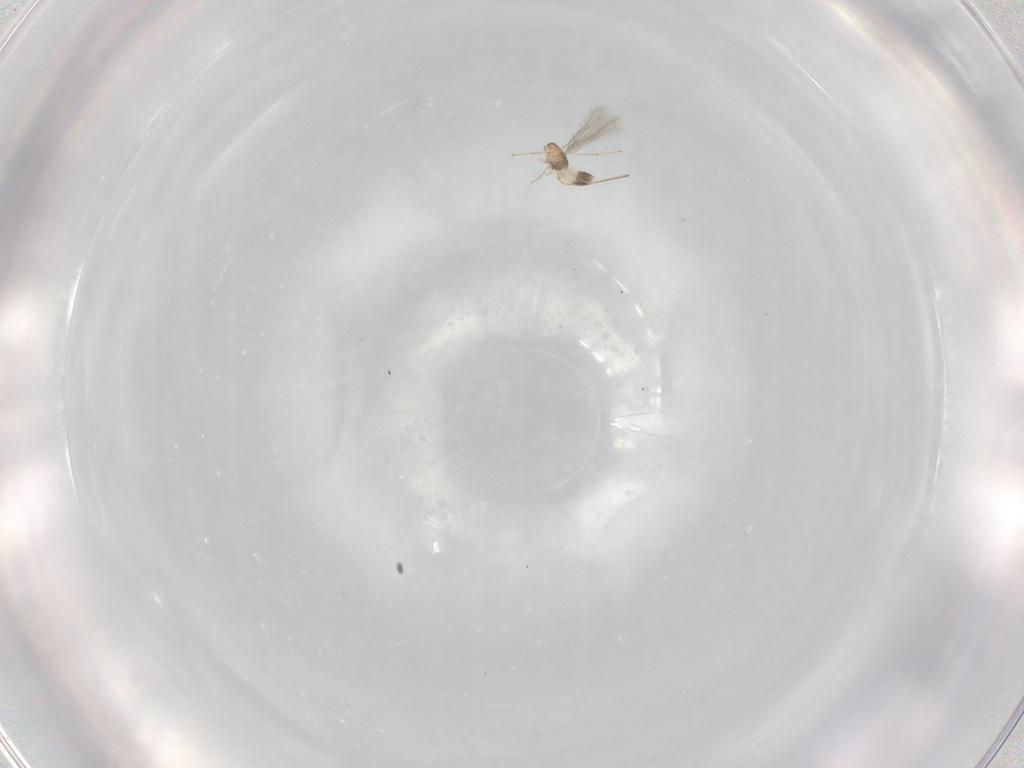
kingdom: Animalia
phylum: Arthropoda
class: Insecta
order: Hymenoptera
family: Mymaridae
